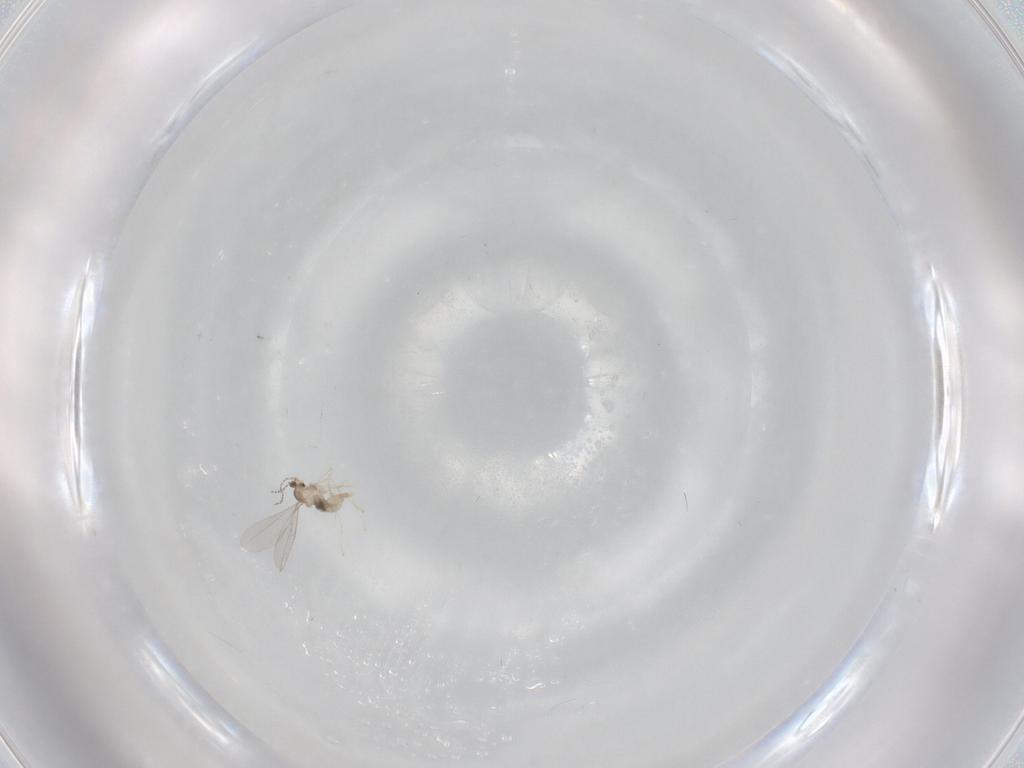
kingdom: Animalia
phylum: Arthropoda
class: Insecta
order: Diptera
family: Cecidomyiidae
